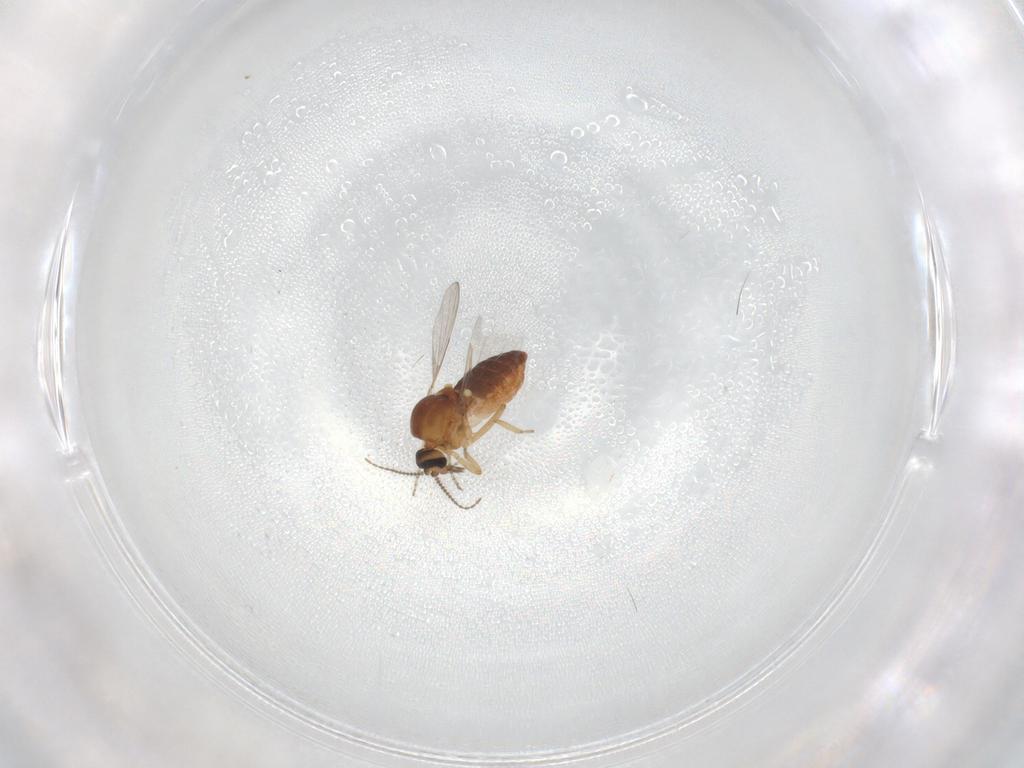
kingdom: Animalia
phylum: Arthropoda
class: Insecta
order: Diptera
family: Ceratopogonidae
